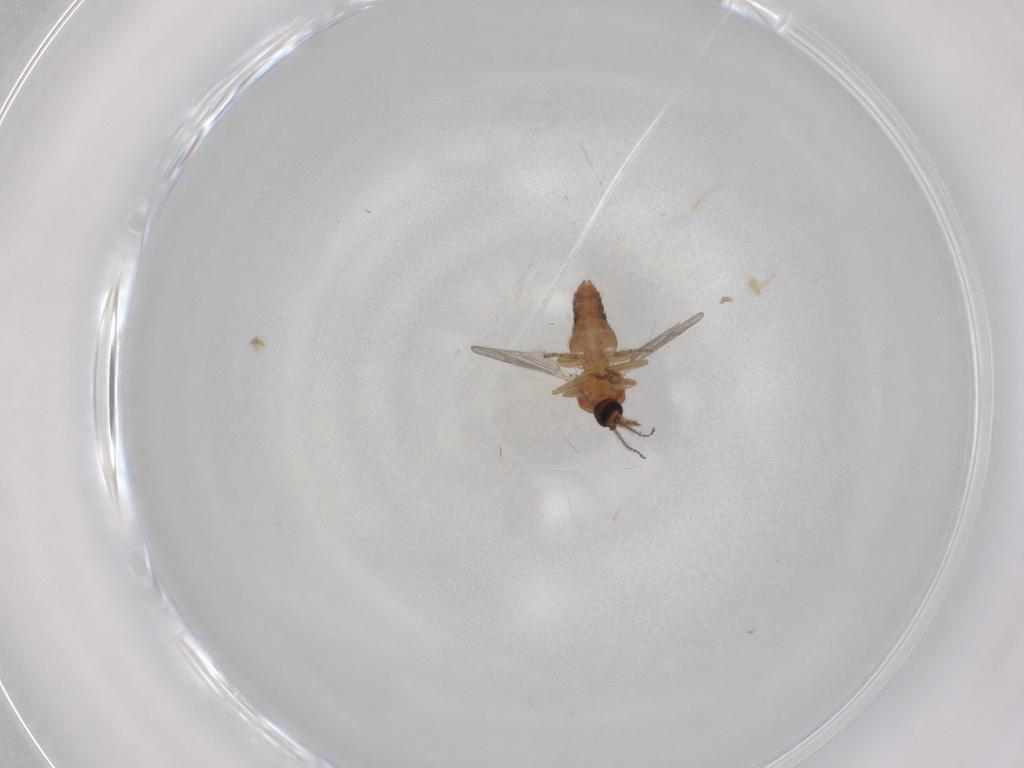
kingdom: Animalia
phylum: Arthropoda
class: Insecta
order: Diptera
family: Ceratopogonidae
